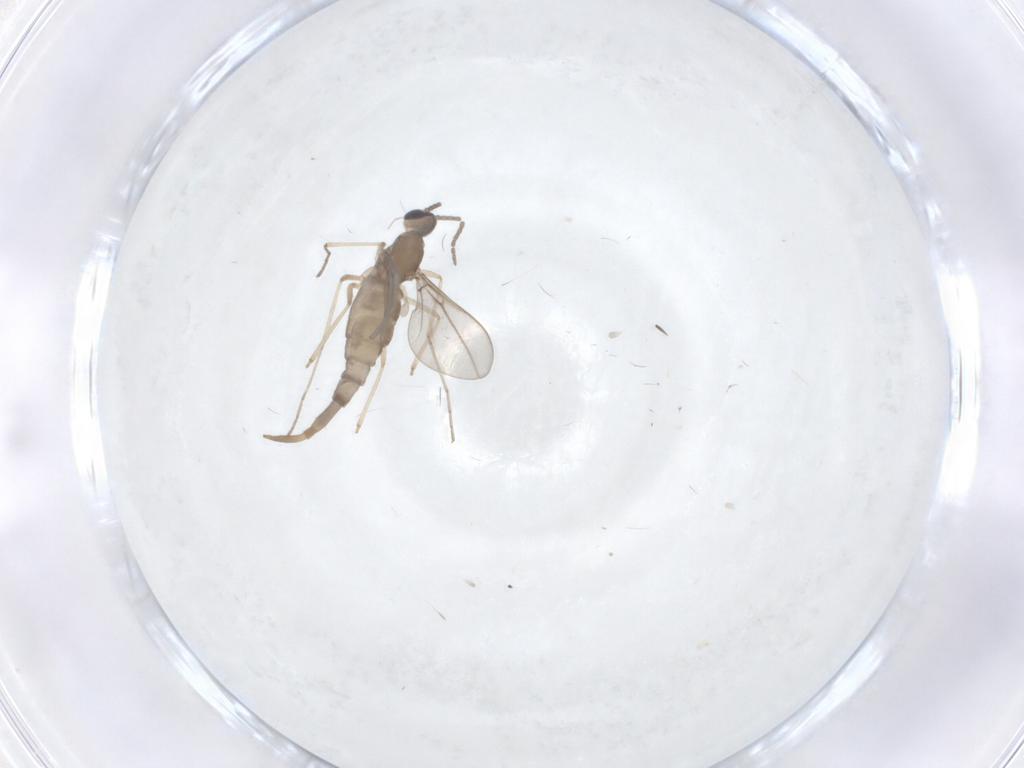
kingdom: Animalia
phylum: Arthropoda
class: Insecta
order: Diptera
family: Cecidomyiidae
